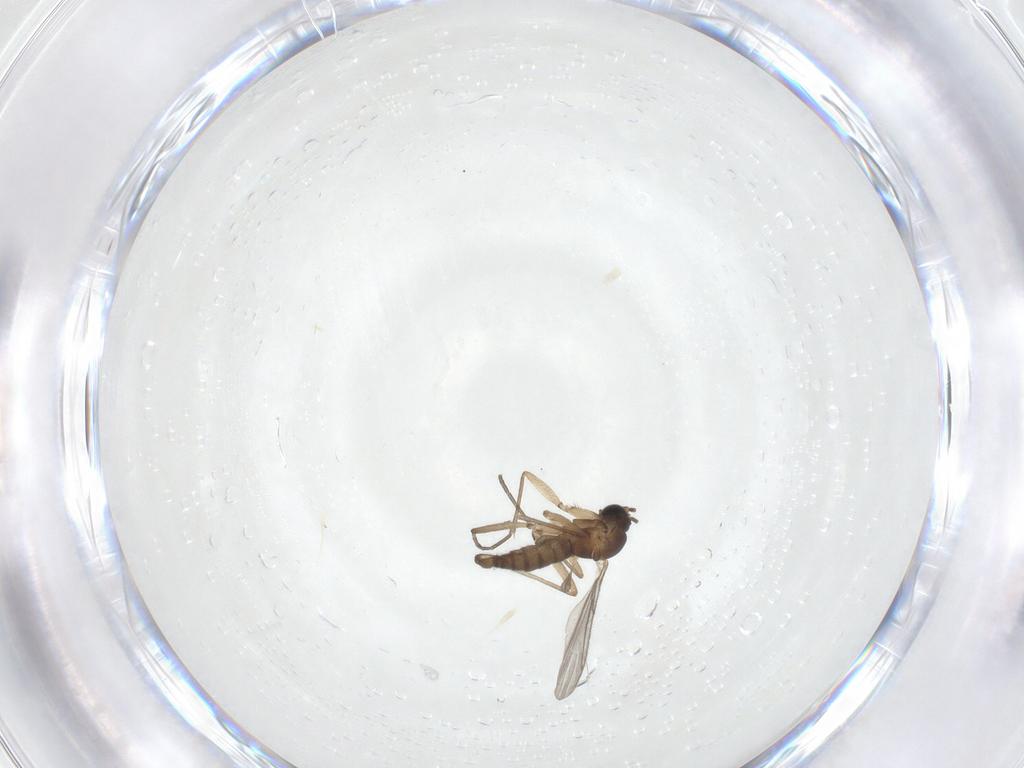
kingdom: Animalia
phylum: Arthropoda
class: Insecta
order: Diptera
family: Sciaridae
